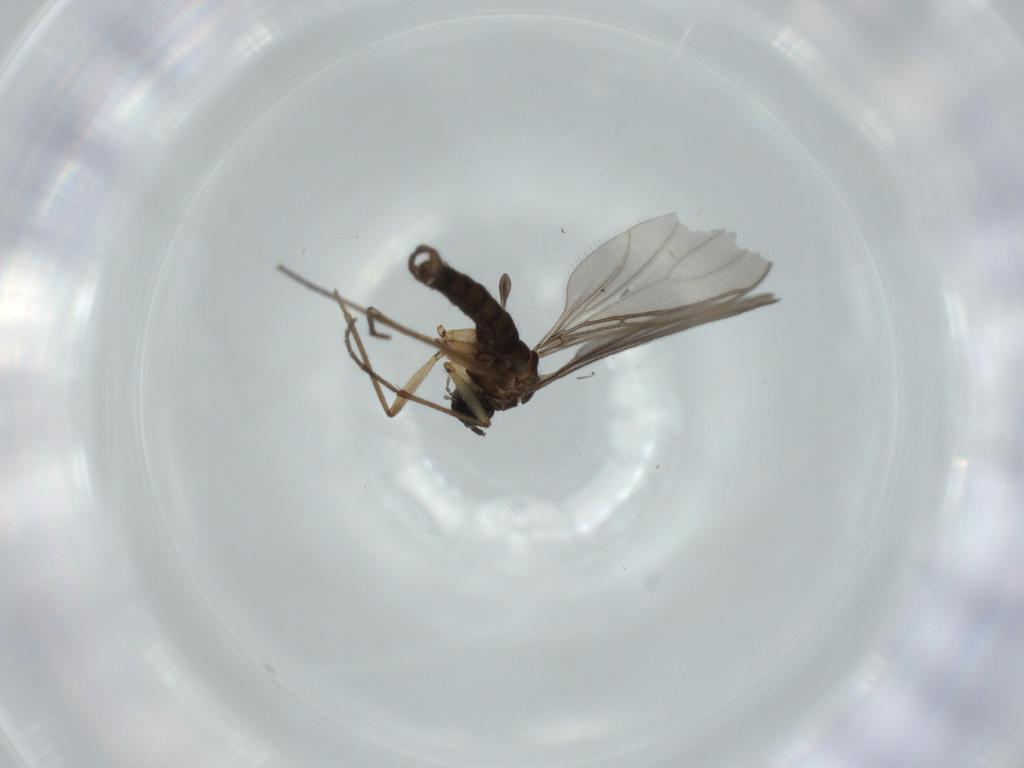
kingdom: Animalia
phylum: Arthropoda
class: Insecta
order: Diptera
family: Sciaridae
